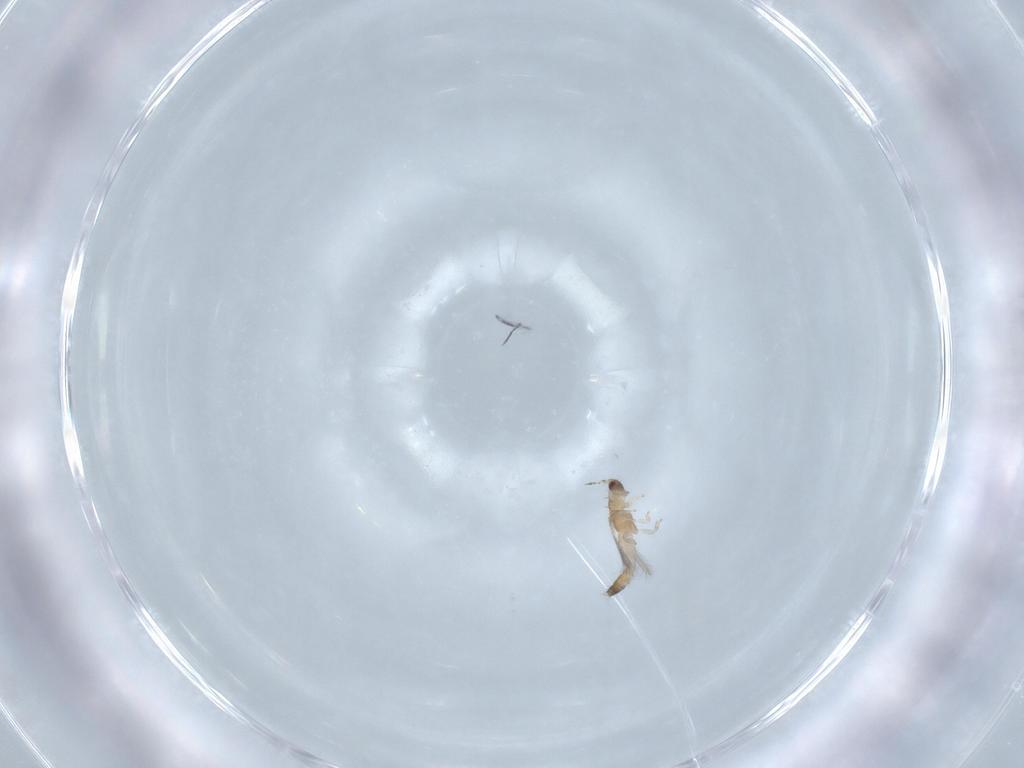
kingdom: Animalia
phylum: Arthropoda
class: Insecta
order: Thysanoptera
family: Thripidae
